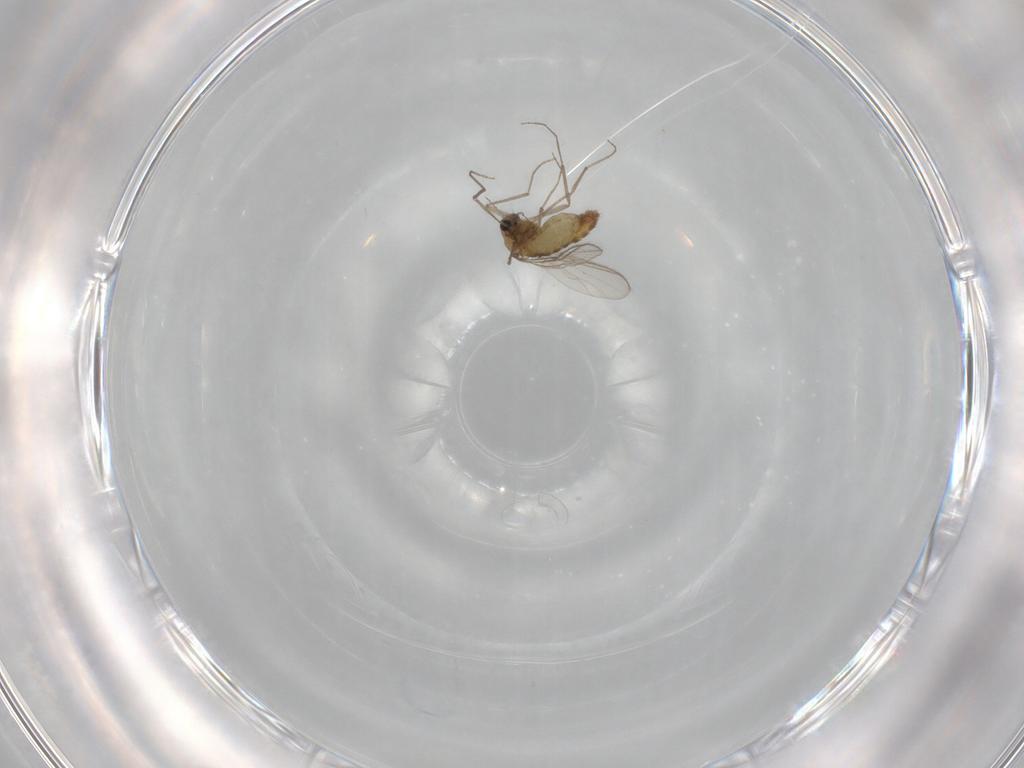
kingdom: Animalia
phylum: Arthropoda
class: Insecta
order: Diptera
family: Chironomidae
